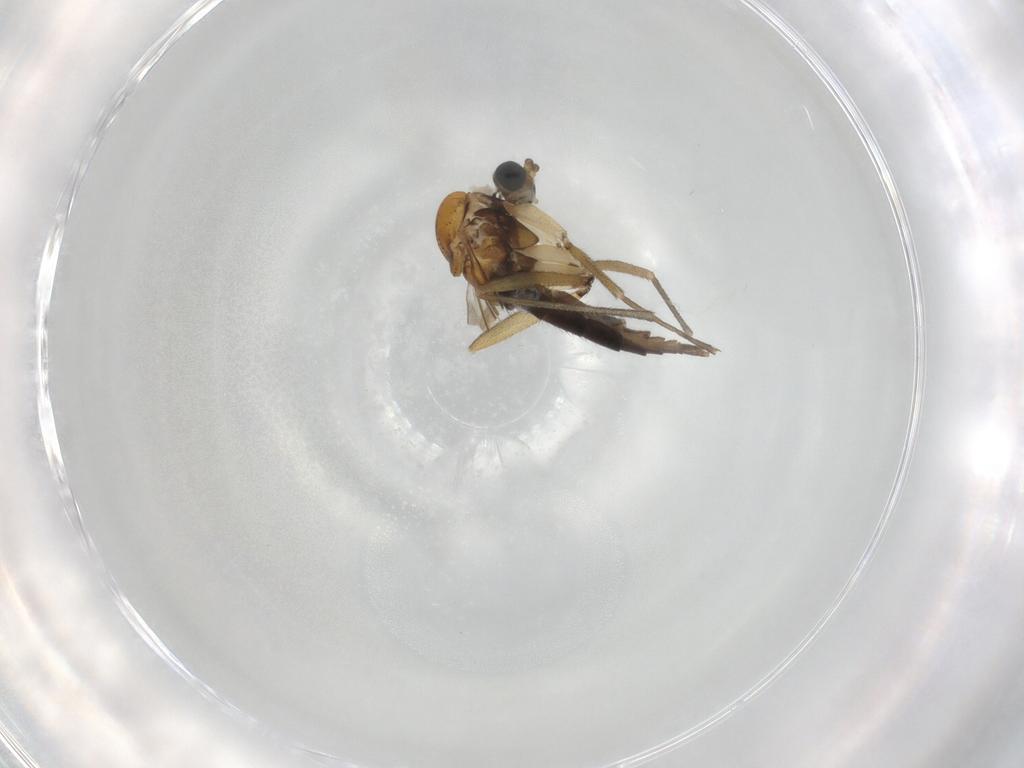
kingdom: Animalia
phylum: Arthropoda
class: Insecta
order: Diptera
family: Sciaridae
